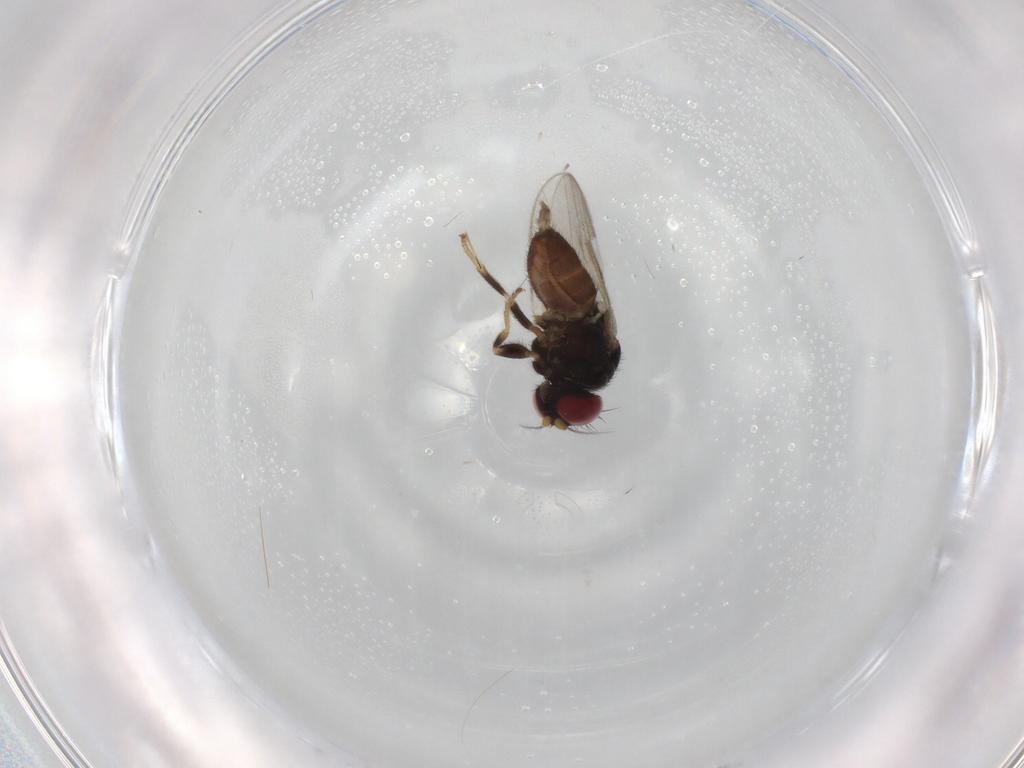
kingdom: Animalia
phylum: Arthropoda
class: Insecta
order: Diptera
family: Chloropidae
